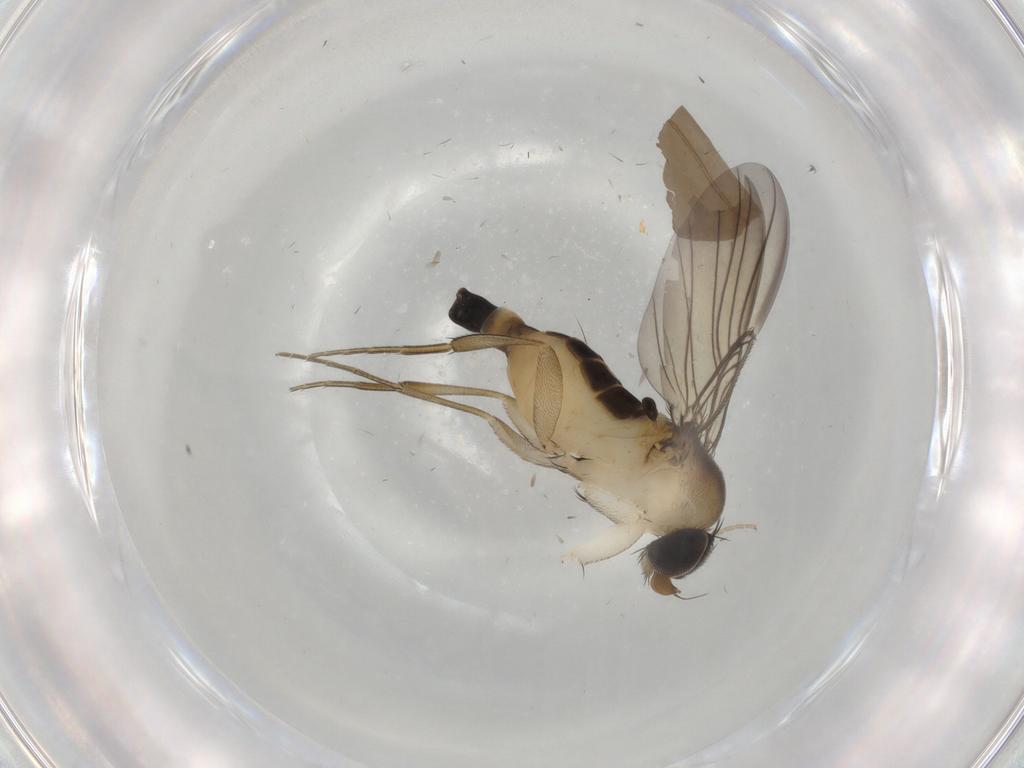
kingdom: Animalia
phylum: Arthropoda
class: Insecta
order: Diptera
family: Phoridae
